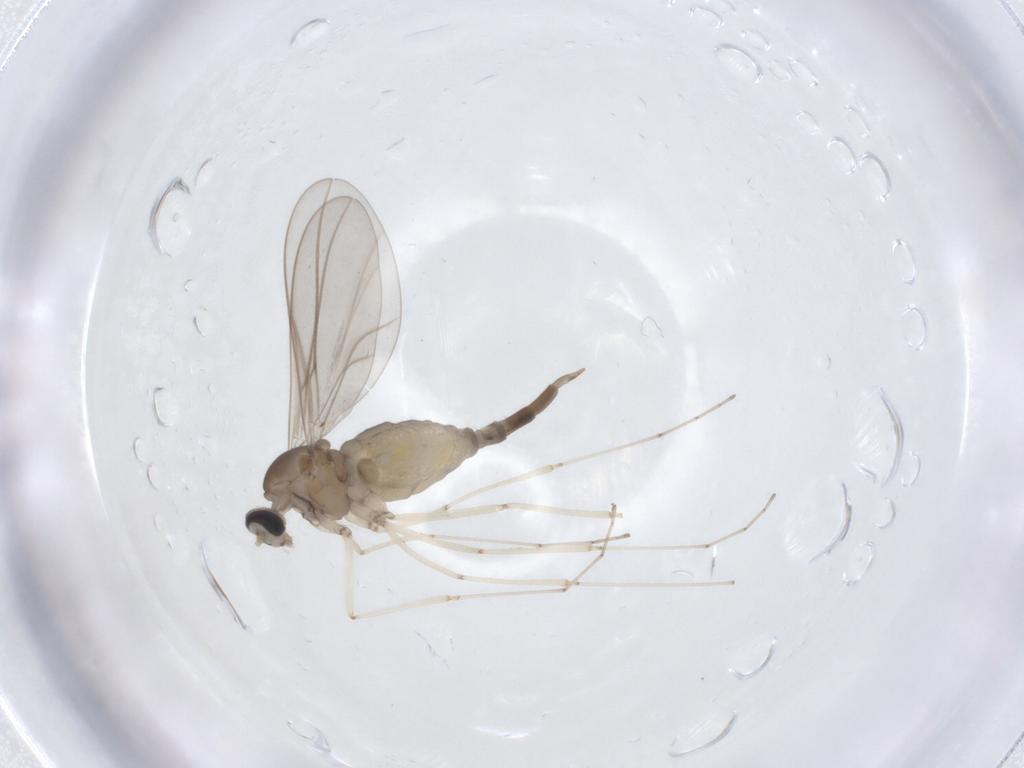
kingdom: Animalia
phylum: Arthropoda
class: Insecta
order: Diptera
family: Cecidomyiidae
